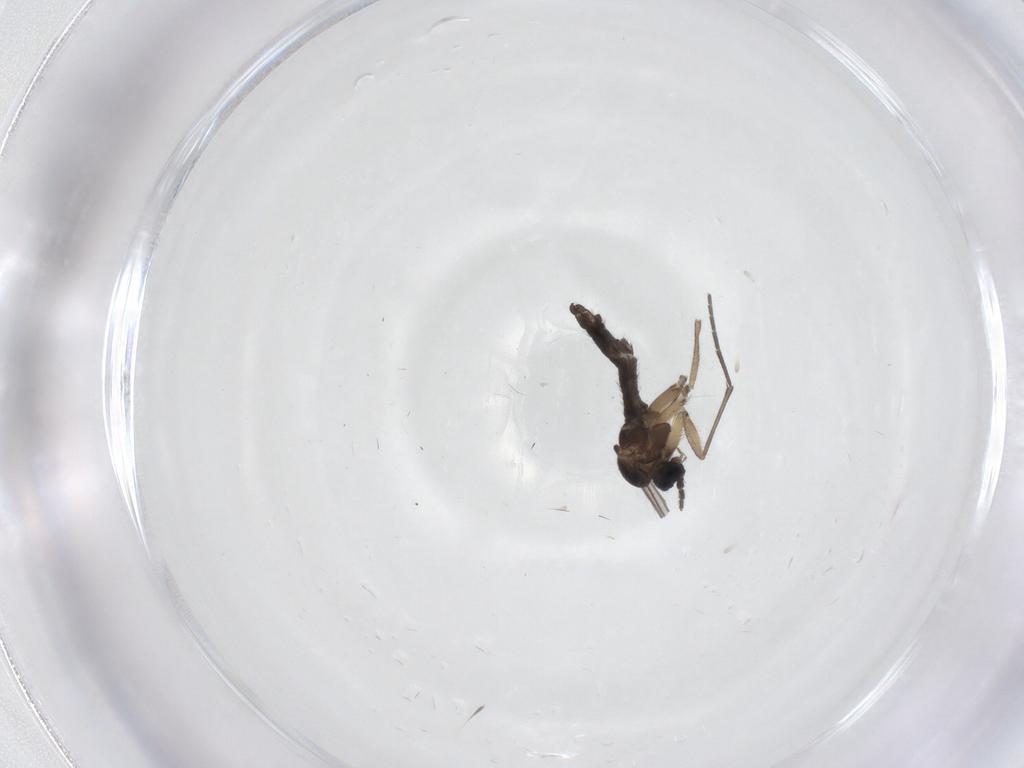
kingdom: Animalia
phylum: Arthropoda
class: Insecta
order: Diptera
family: Sciaridae
